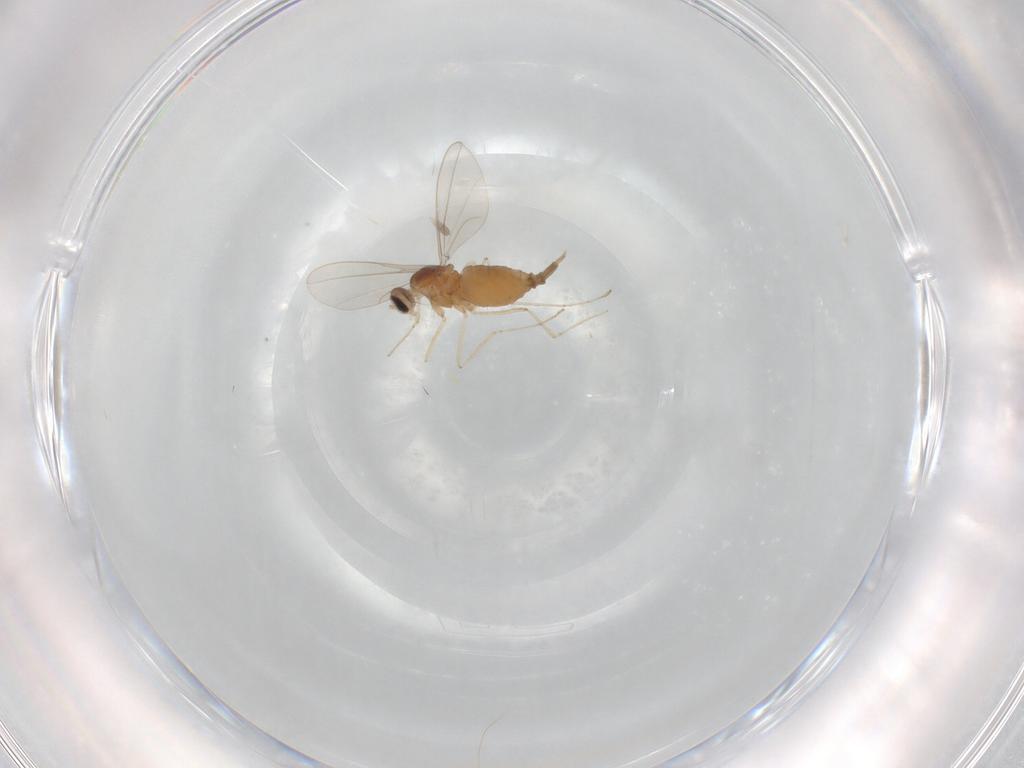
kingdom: Animalia
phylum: Arthropoda
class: Insecta
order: Diptera
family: Cecidomyiidae
